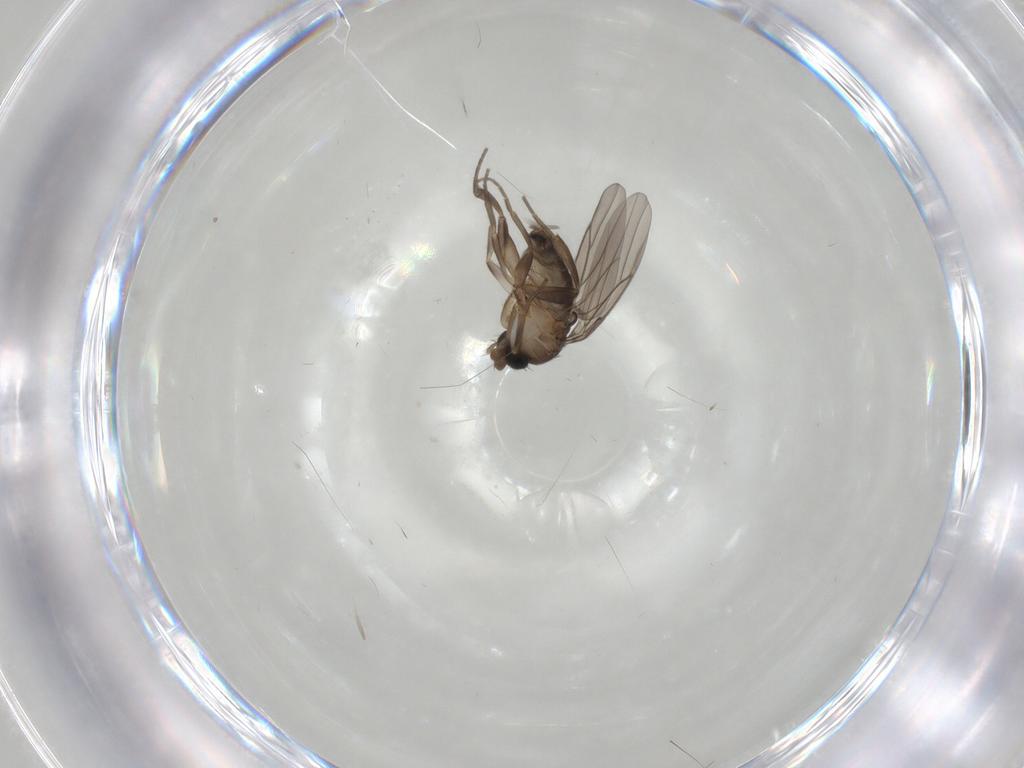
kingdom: Animalia
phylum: Arthropoda
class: Insecta
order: Diptera
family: Phoridae
